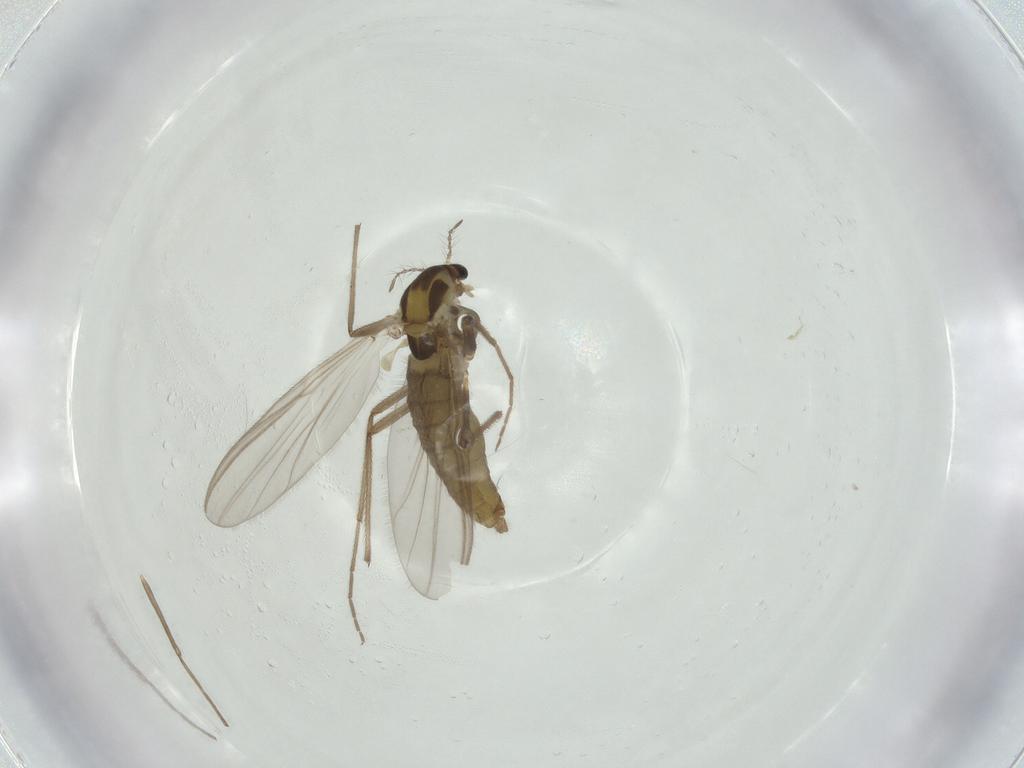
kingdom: Animalia
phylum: Arthropoda
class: Insecta
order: Diptera
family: Chironomidae
